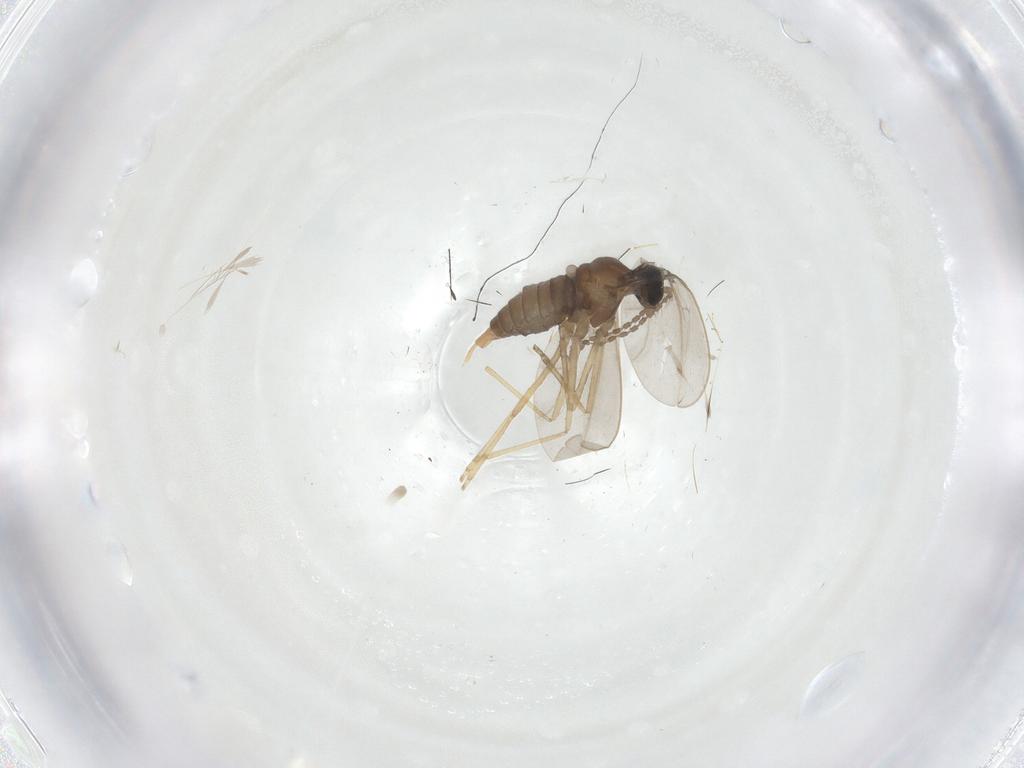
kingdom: Animalia
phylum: Arthropoda
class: Insecta
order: Diptera
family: Cecidomyiidae
